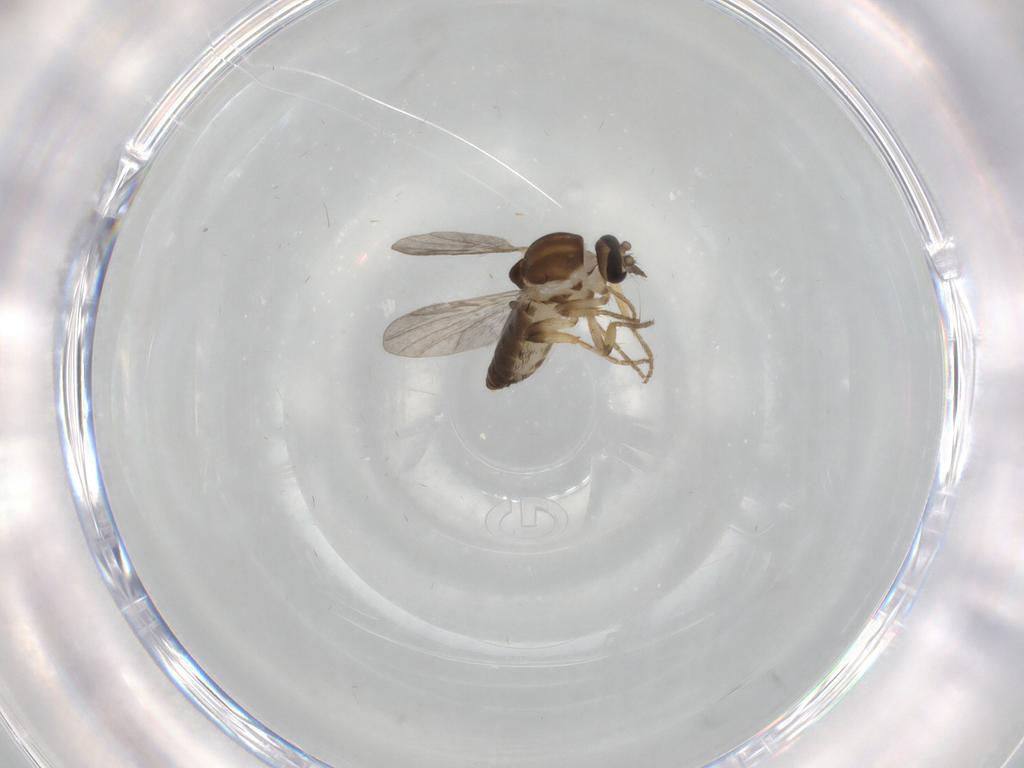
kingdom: Animalia
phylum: Arthropoda
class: Insecta
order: Diptera
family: Ceratopogonidae
